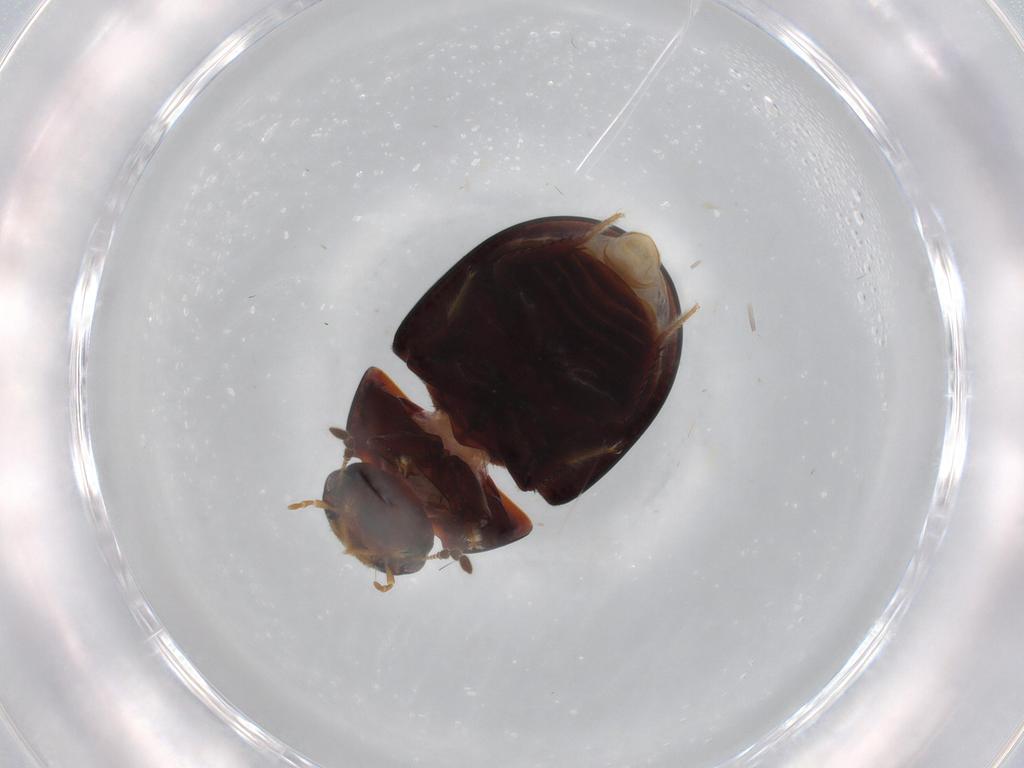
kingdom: Animalia
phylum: Arthropoda
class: Insecta
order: Coleoptera
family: Hydrophilidae
